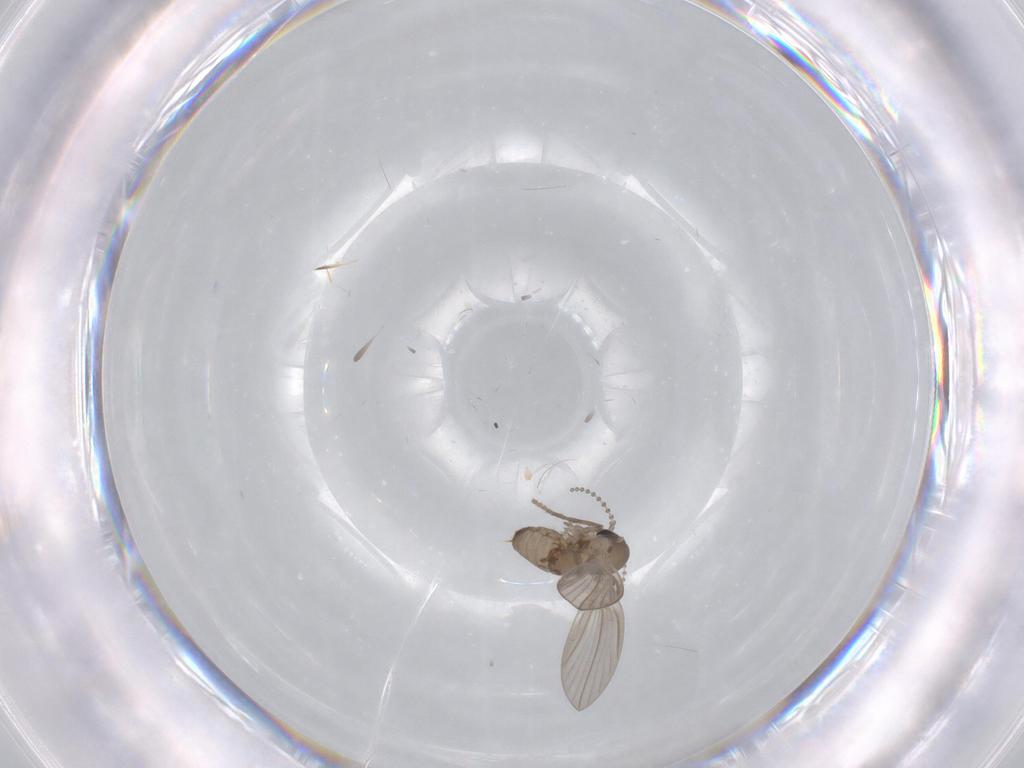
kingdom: Animalia
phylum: Arthropoda
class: Insecta
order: Diptera
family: Psychodidae
